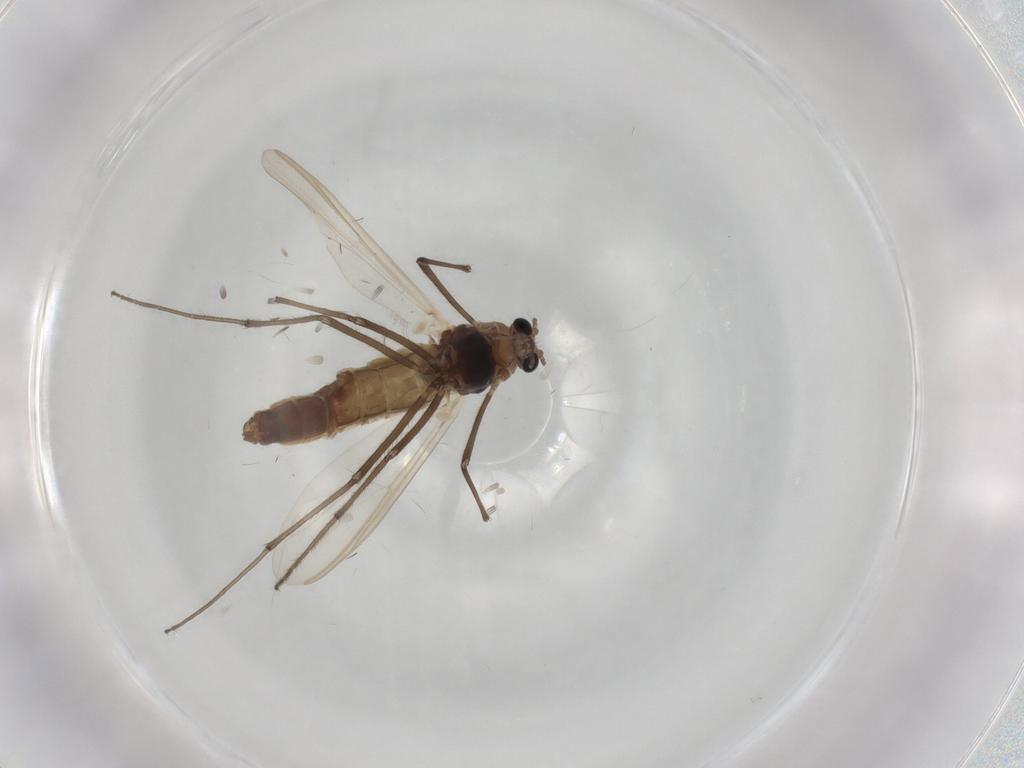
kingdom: Animalia
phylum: Arthropoda
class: Insecta
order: Diptera
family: Chironomidae
